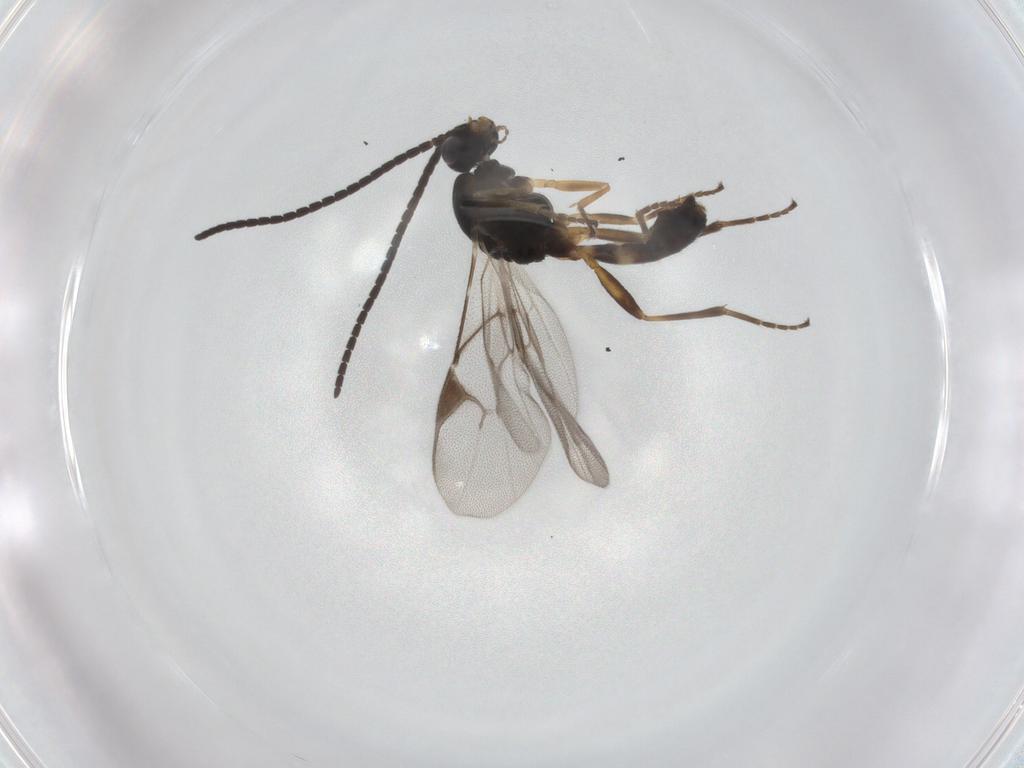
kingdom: Animalia
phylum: Arthropoda
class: Insecta
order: Hymenoptera
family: Braconidae
